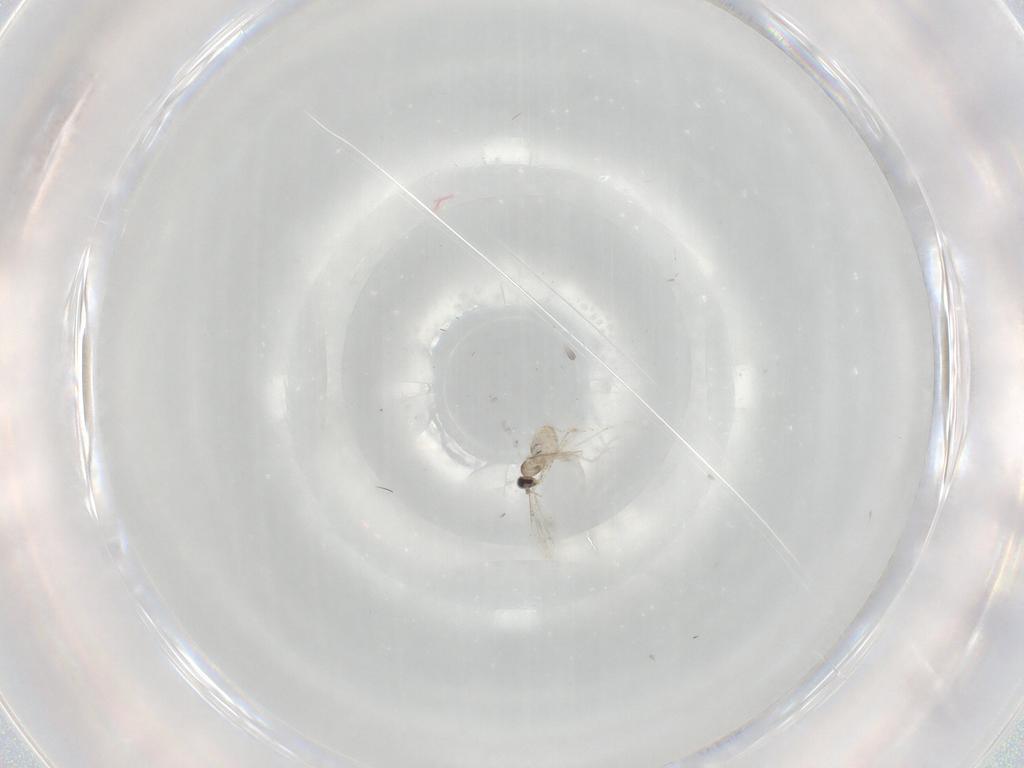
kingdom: Animalia
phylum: Arthropoda
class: Insecta
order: Diptera
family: Cecidomyiidae
